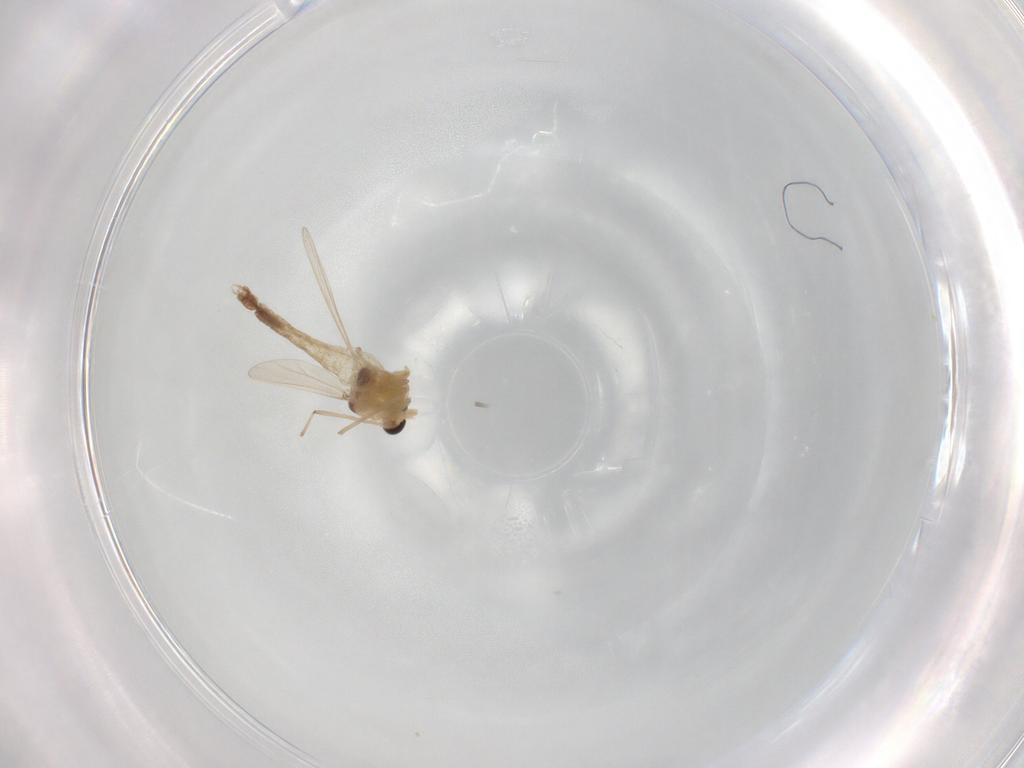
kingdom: Animalia
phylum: Arthropoda
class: Insecta
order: Diptera
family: Chironomidae
